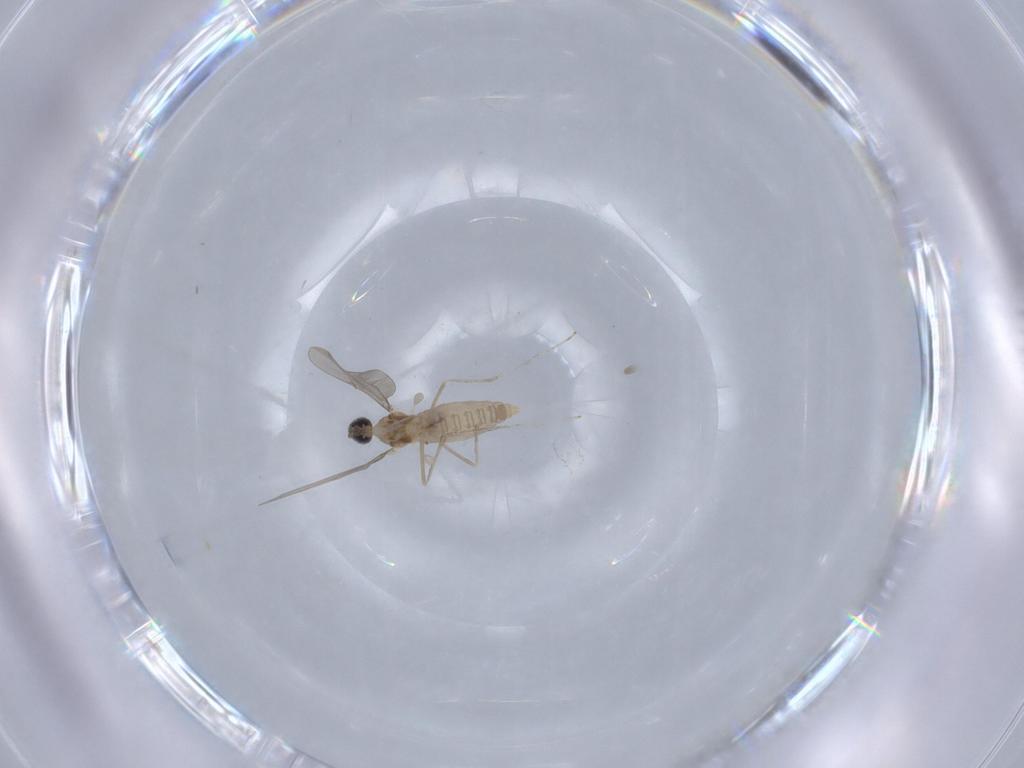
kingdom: Animalia
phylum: Arthropoda
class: Insecta
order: Diptera
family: Cecidomyiidae
